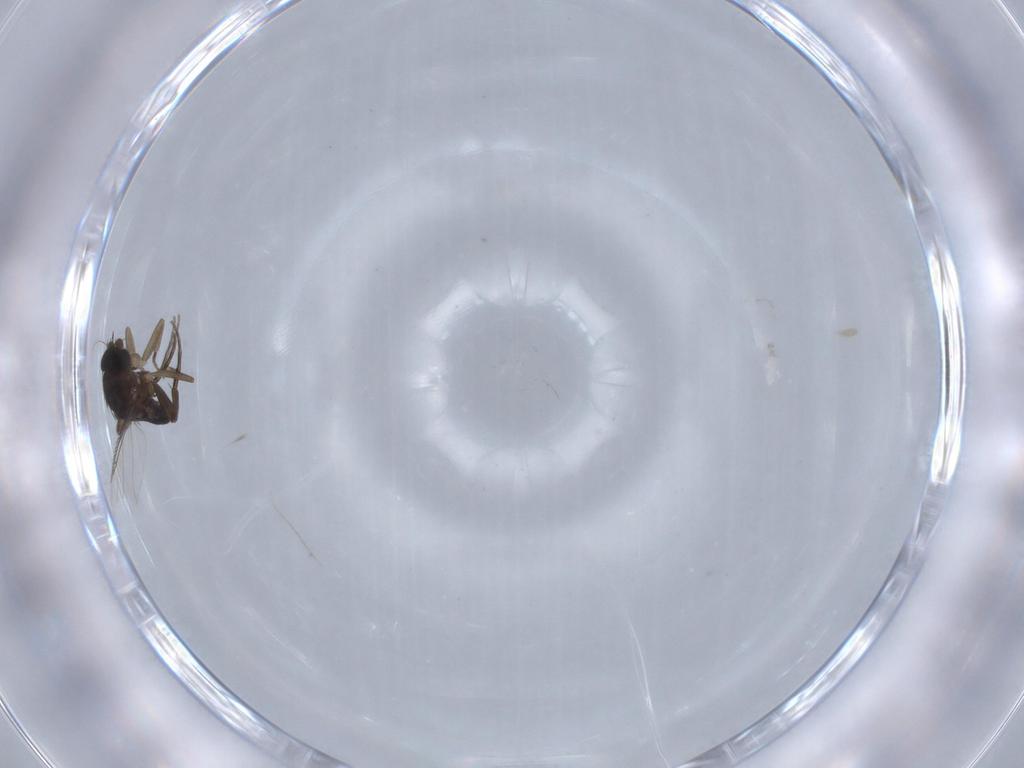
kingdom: Animalia
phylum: Arthropoda
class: Insecta
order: Diptera
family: Phoridae
